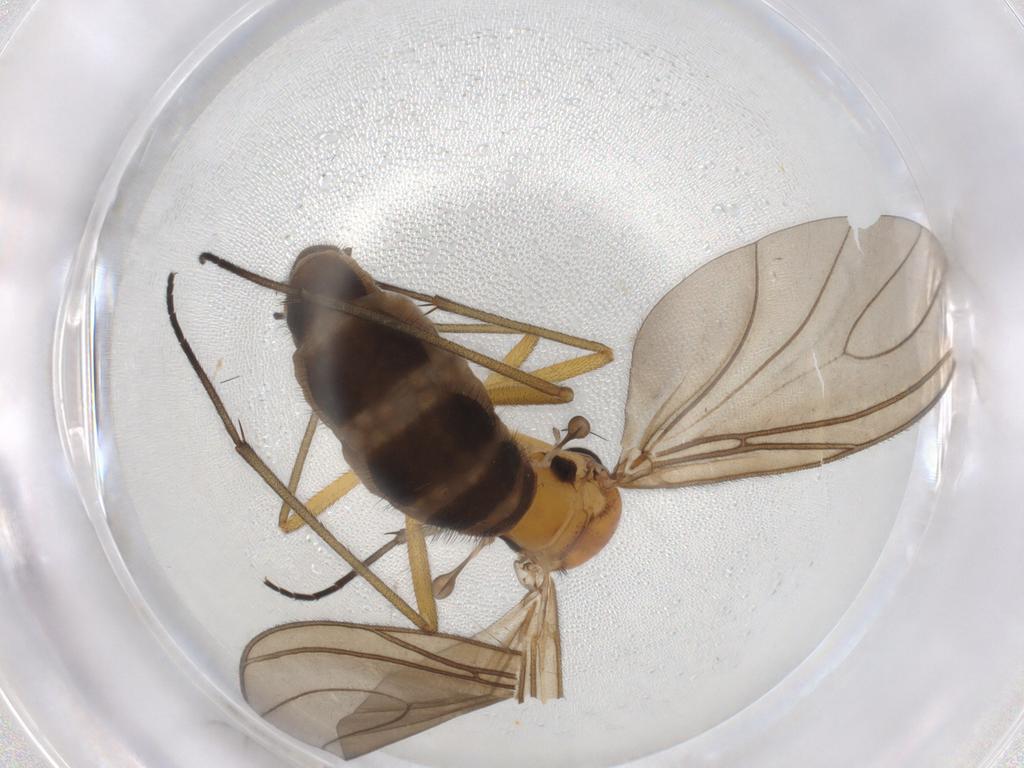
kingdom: Animalia
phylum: Arthropoda
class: Insecta
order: Diptera
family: Sciaridae
